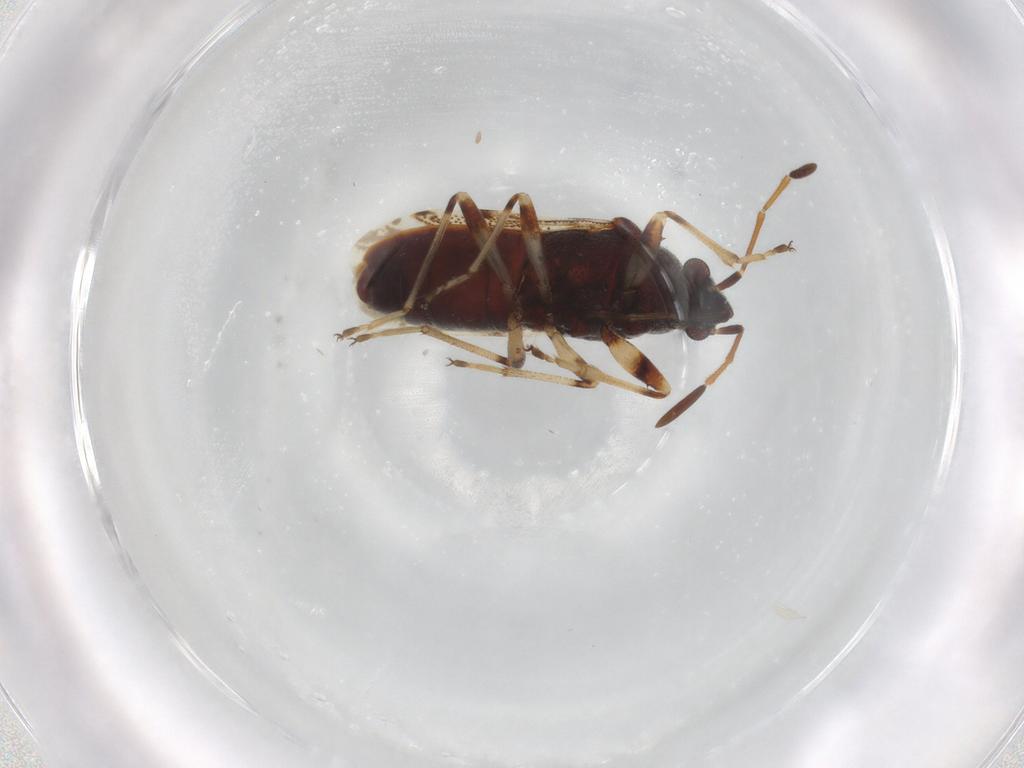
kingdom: Animalia
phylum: Arthropoda
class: Insecta
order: Hemiptera
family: Rhyparochromidae
